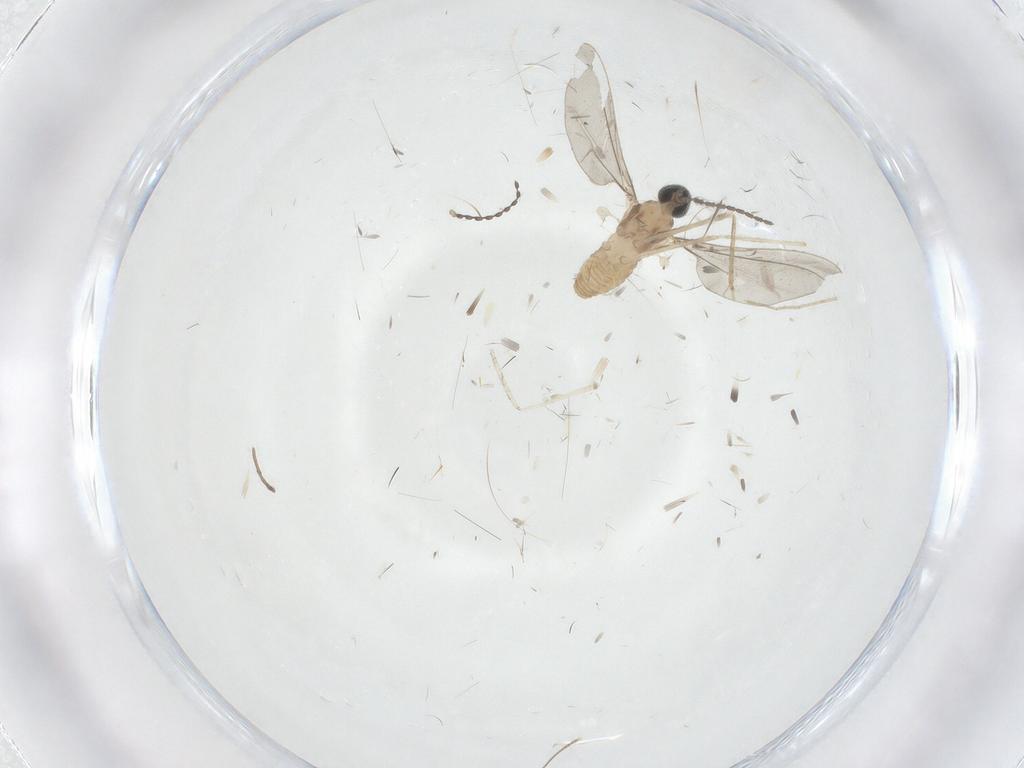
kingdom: Animalia
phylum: Arthropoda
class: Insecta
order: Diptera
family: Cecidomyiidae
